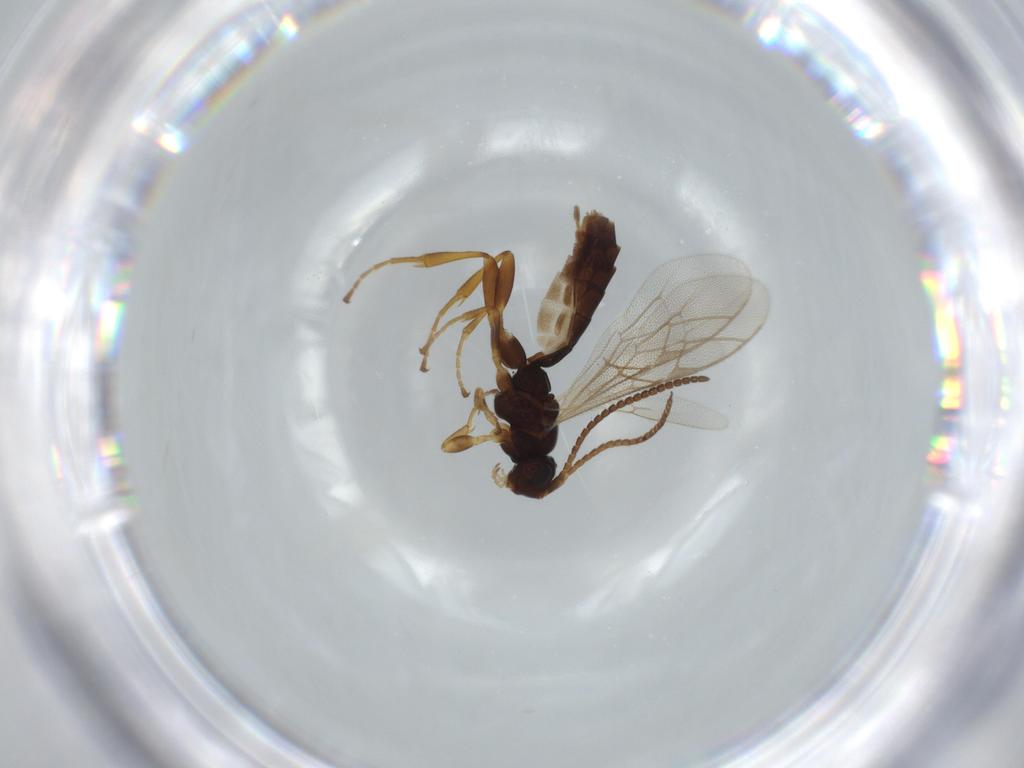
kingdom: Animalia
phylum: Arthropoda
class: Insecta
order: Hymenoptera
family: Ichneumonidae
